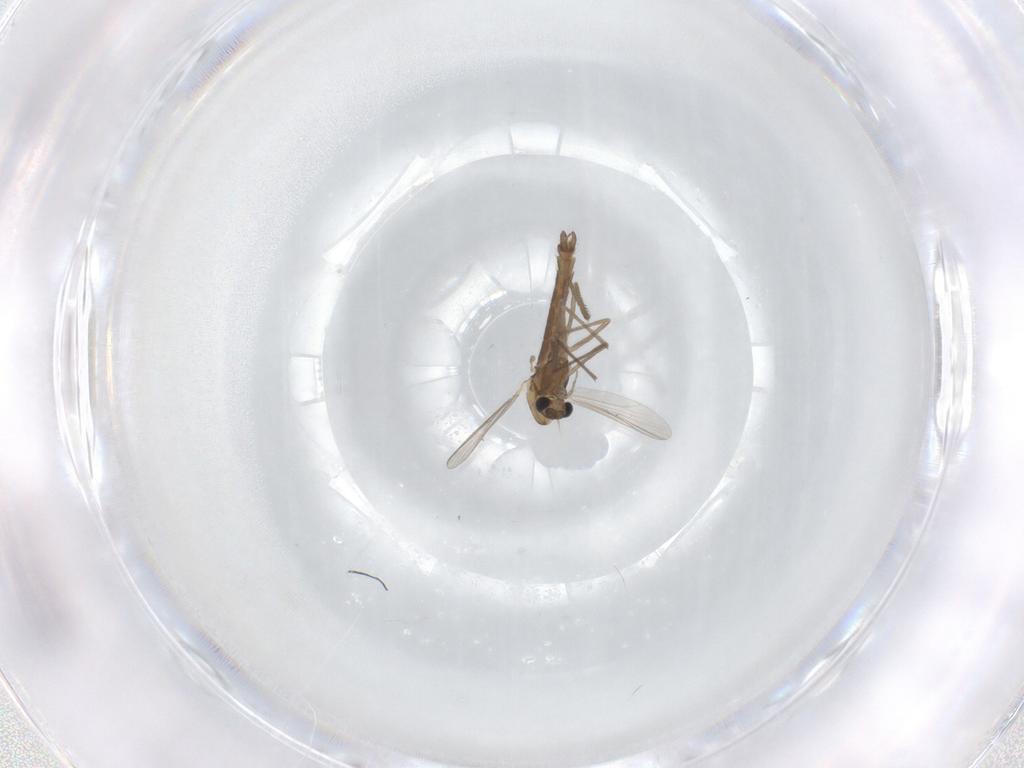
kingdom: Animalia
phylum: Arthropoda
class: Insecta
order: Diptera
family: Chironomidae
